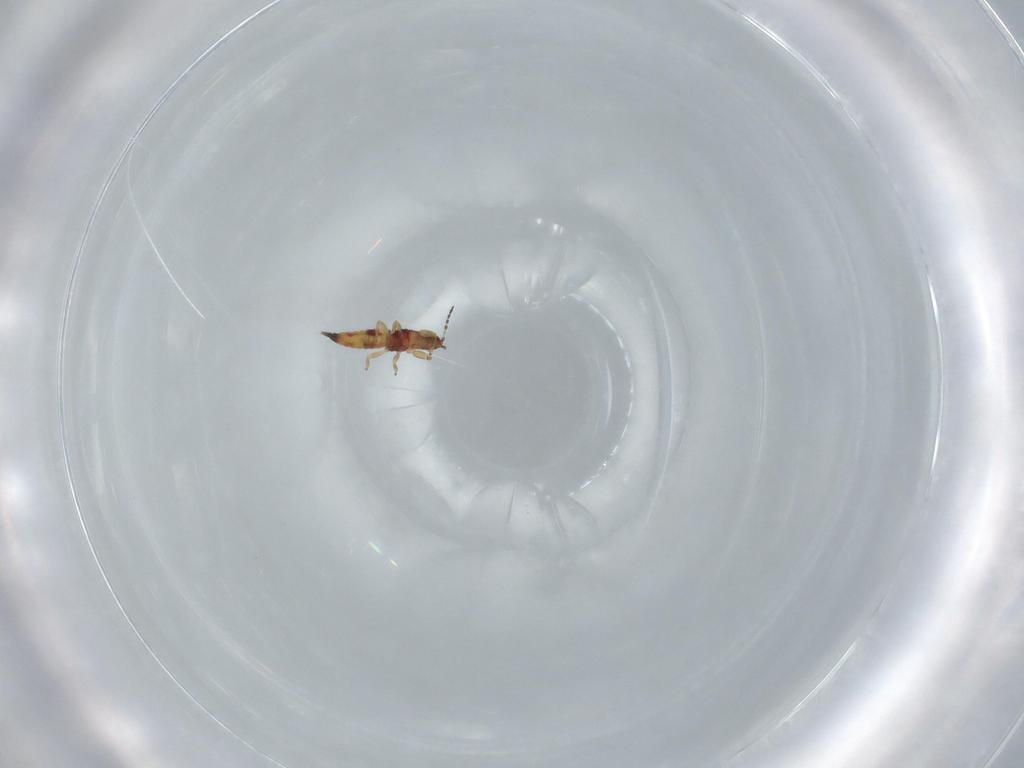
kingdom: Animalia
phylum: Arthropoda
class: Insecta
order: Thysanoptera
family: Phlaeothripidae
